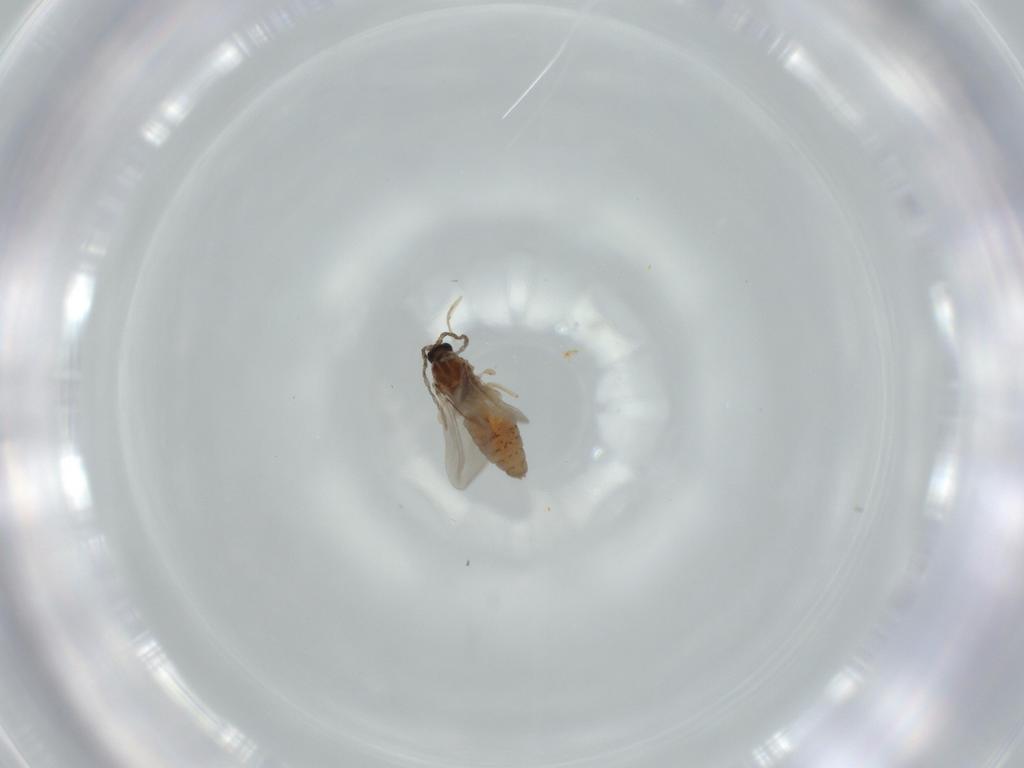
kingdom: Animalia
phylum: Arthropoda
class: Insecta
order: Diptera
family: Cecidomyiidae
